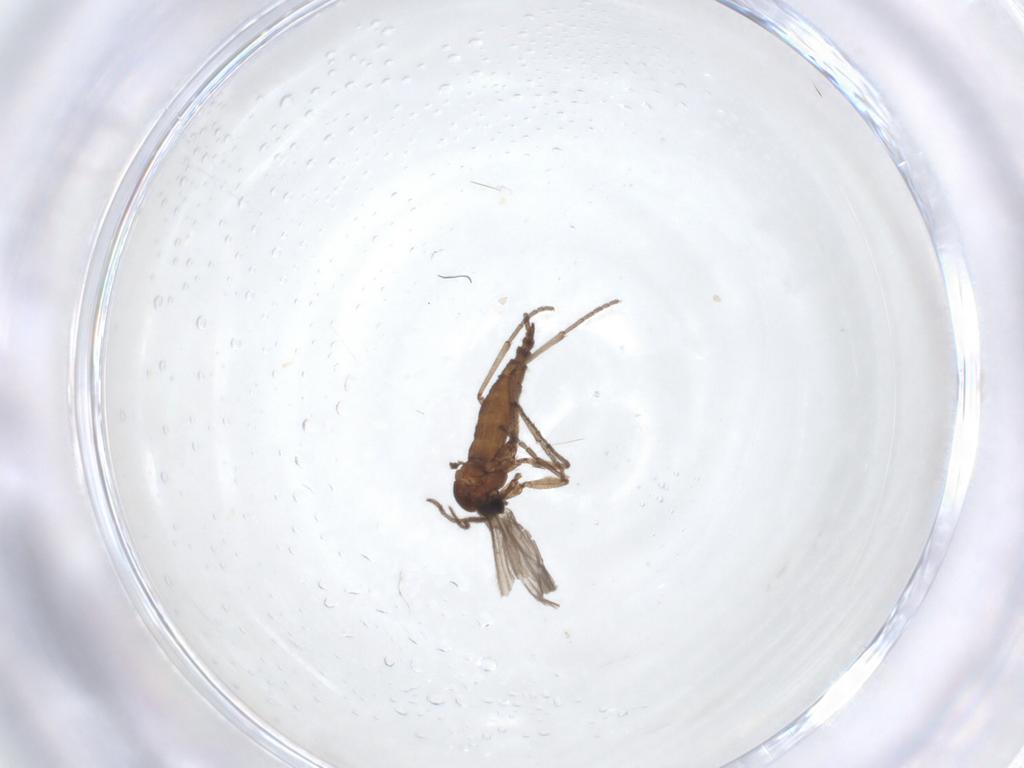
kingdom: Animalia
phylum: Arthropoda
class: Insecta
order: Diptera
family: Sciaridae
